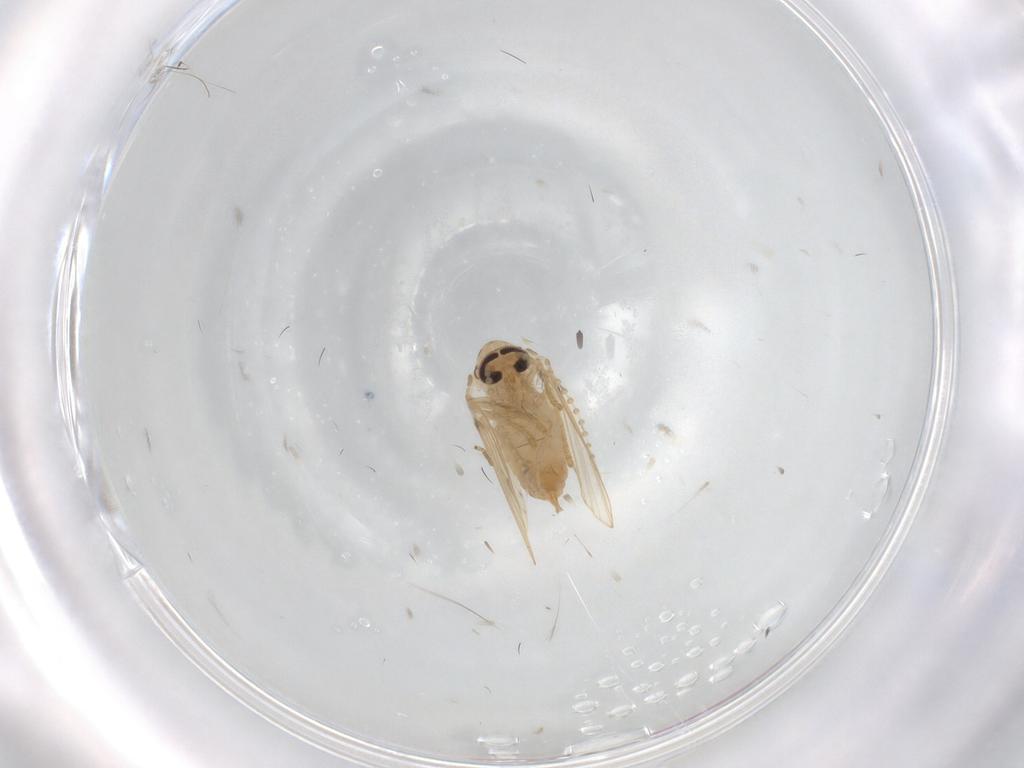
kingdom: Animalia
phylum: Arthropoda
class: Insecta
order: Diptera
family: Psychodidae
